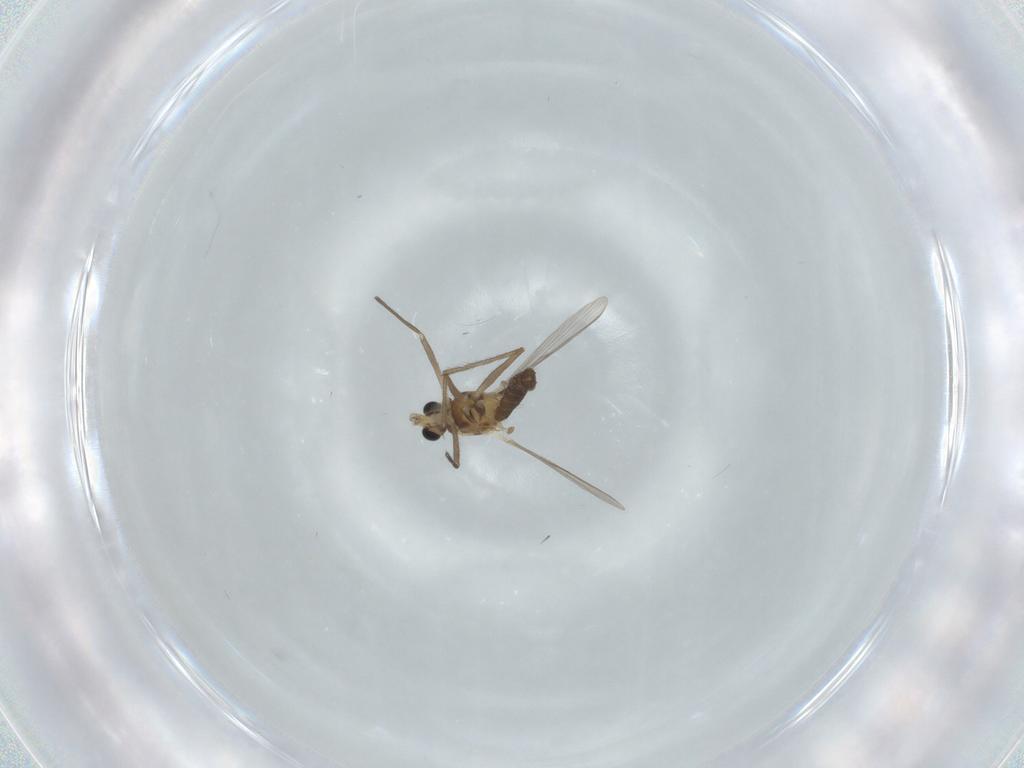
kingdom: Animalia
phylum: Arthropoda
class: Insecta
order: Diptera
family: Chironomidae
